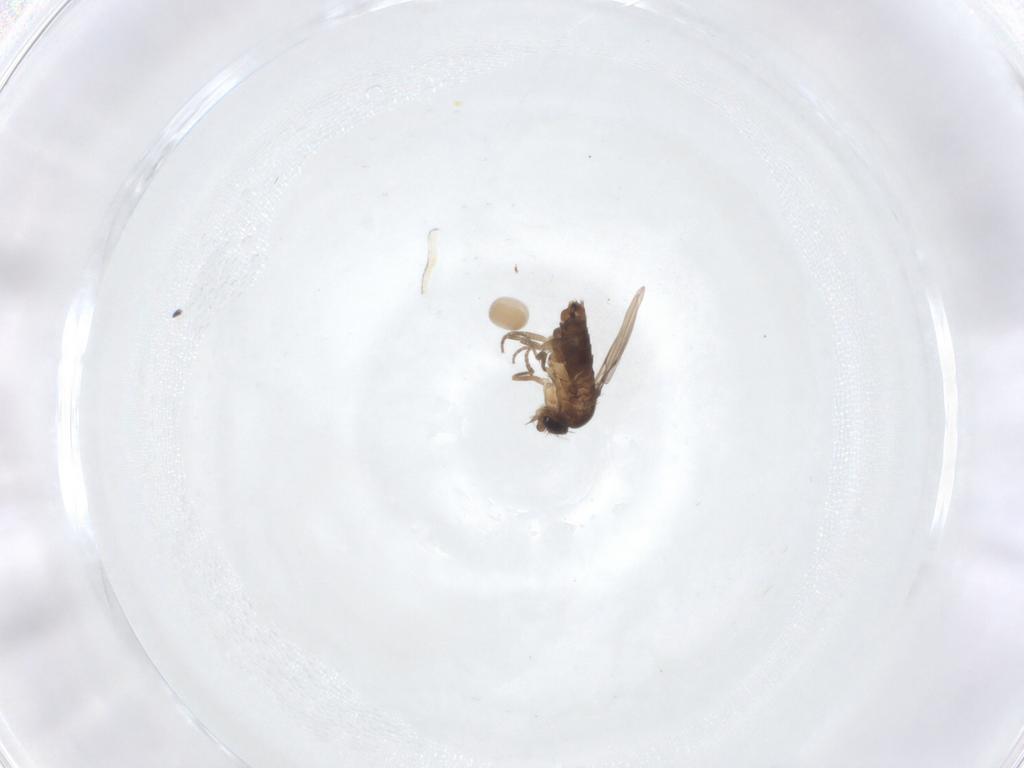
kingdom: Animalia
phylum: Arthropoda
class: Insecta
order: Diptera
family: Phoridae
